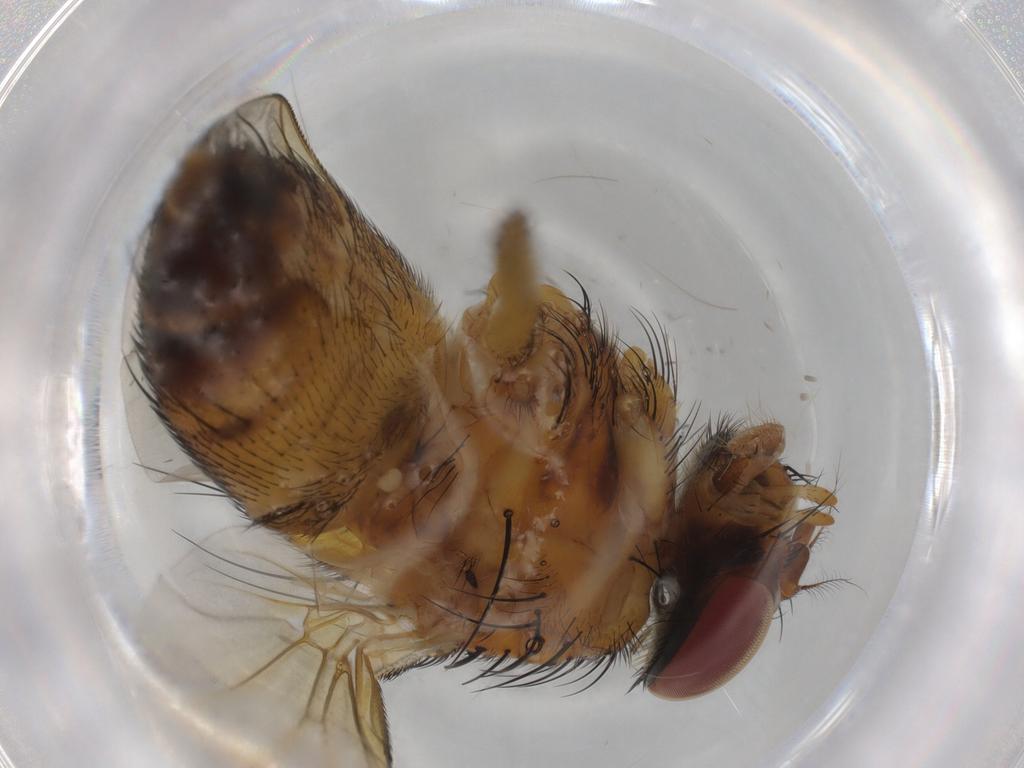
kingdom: Animalia
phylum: Arthropoda
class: Insecta
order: Diptera
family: Calliphoridae
